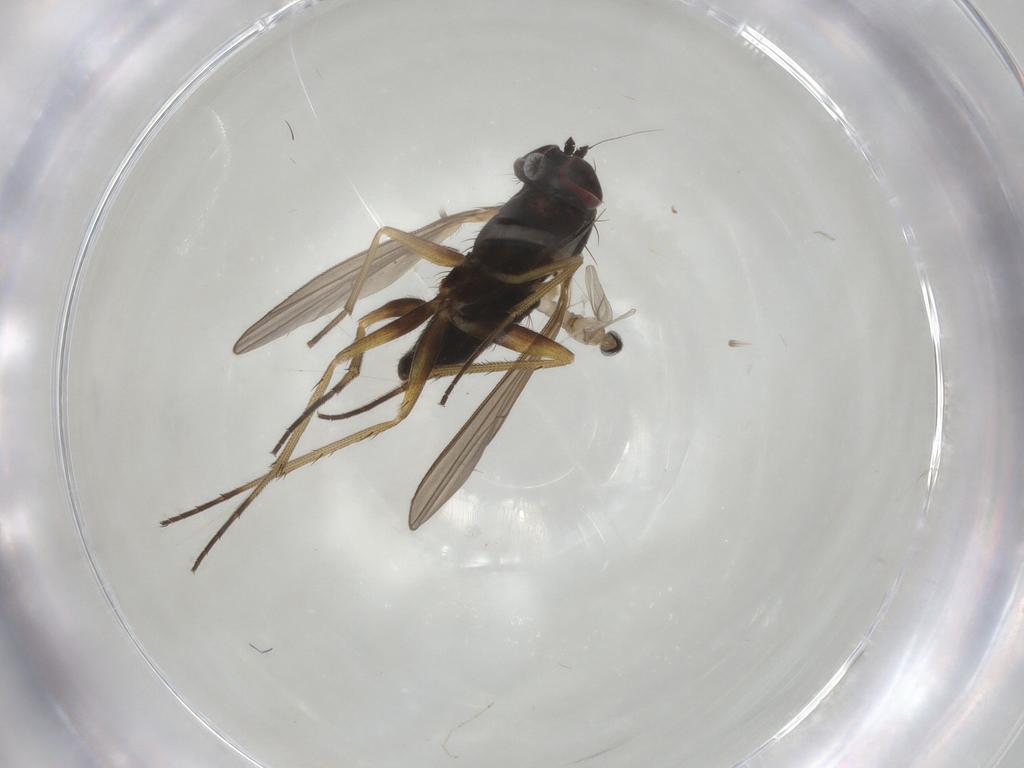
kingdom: Animalia
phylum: Arthropoda
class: Insecta
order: Diptera
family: Dolichopodidae
